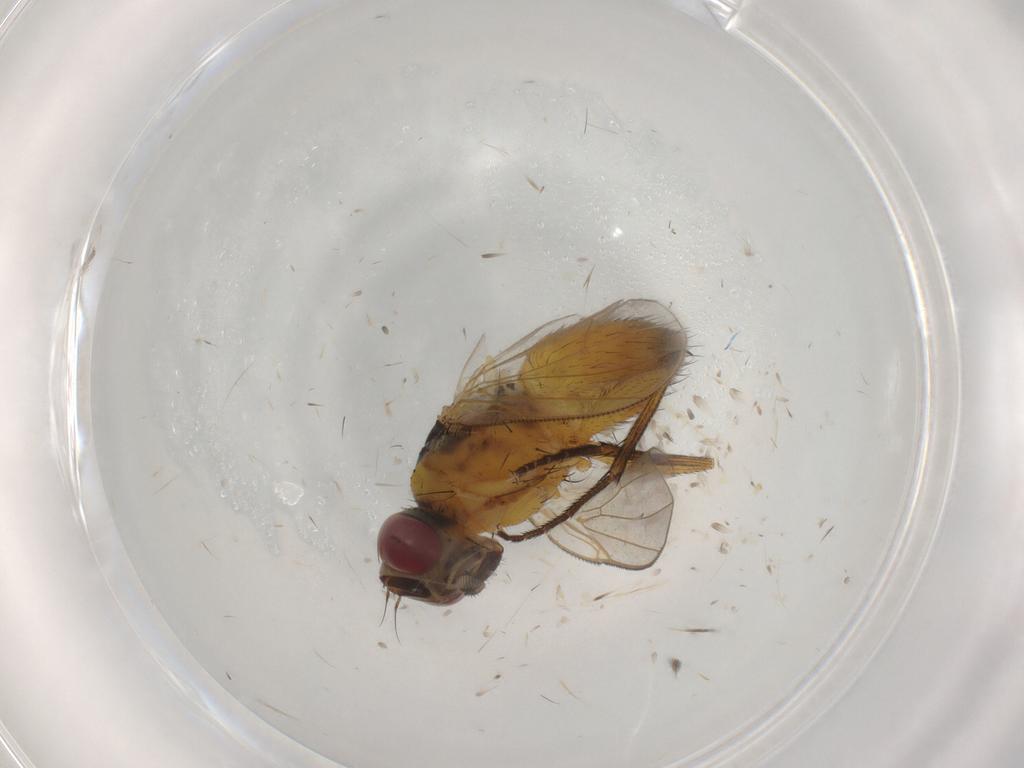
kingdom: Animalia
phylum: Arthropoda
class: Insecta
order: Diptera
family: Muscidae
